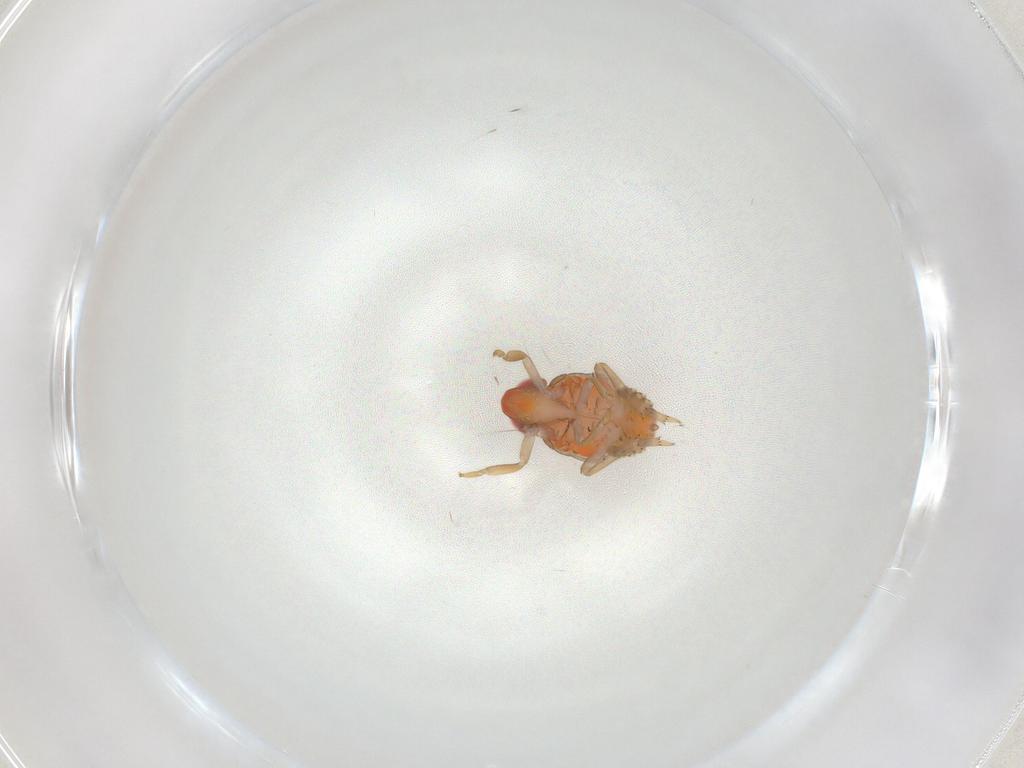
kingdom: Animalia
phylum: Arthropoda
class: Insecta
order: Hemiptera
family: Fulgoroidea_incertae_sedis
